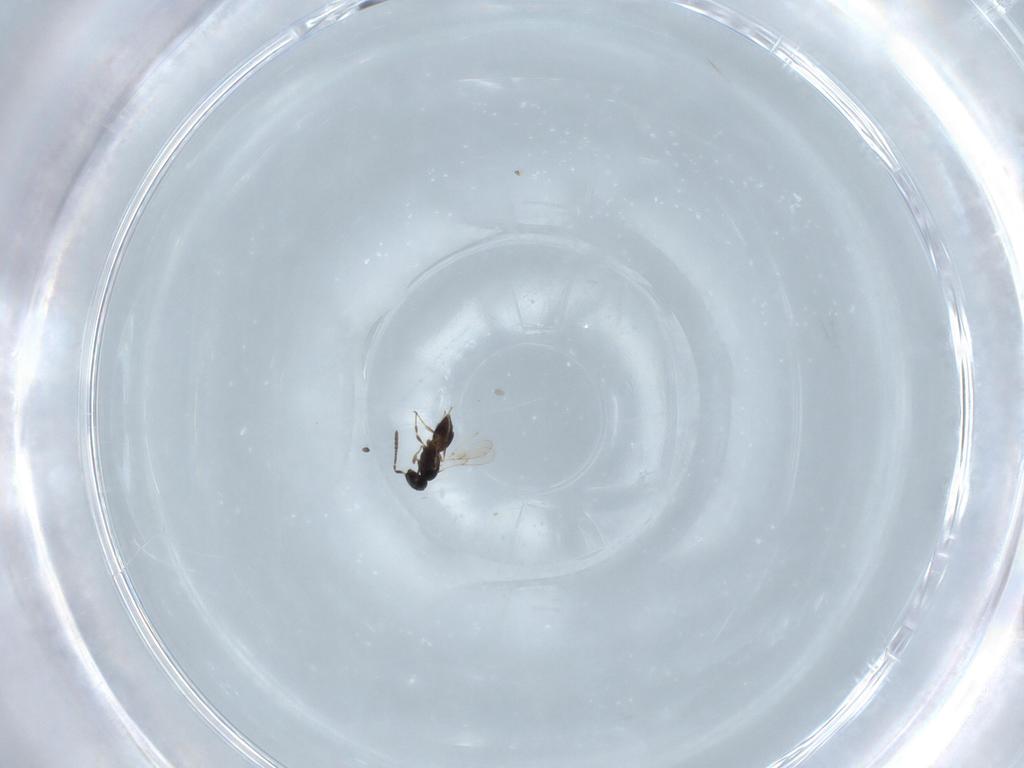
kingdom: Animalia
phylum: Arthropoda
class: Insecta
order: Hymenoptera
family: Scelionidae
